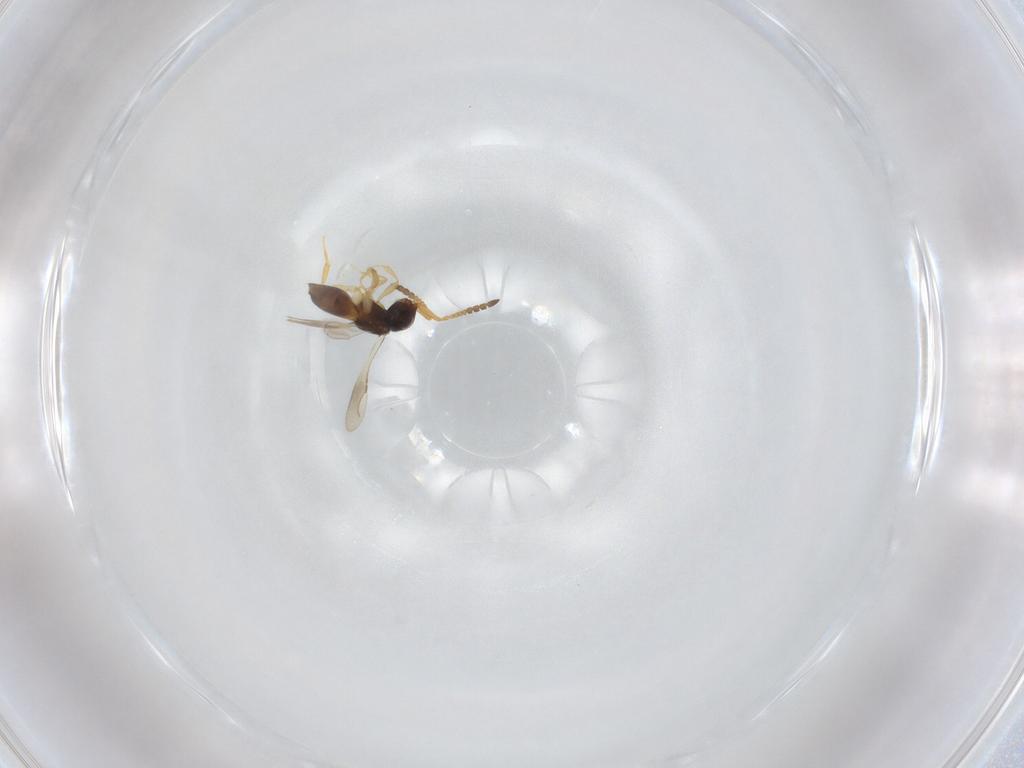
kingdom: Animalia
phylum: Arthropoda
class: Insecta
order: Hymenoptera
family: Ceraphronidae
